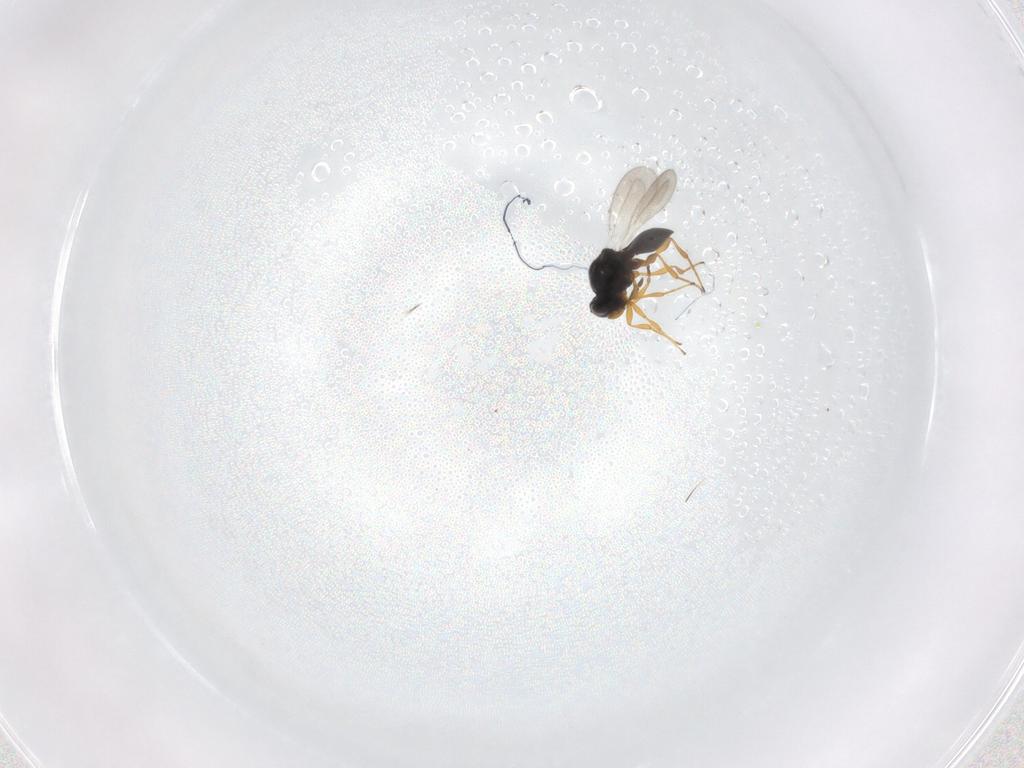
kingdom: Animalia
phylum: Arthropoda
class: Insecta
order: Hymenoptera
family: Platygastridae
